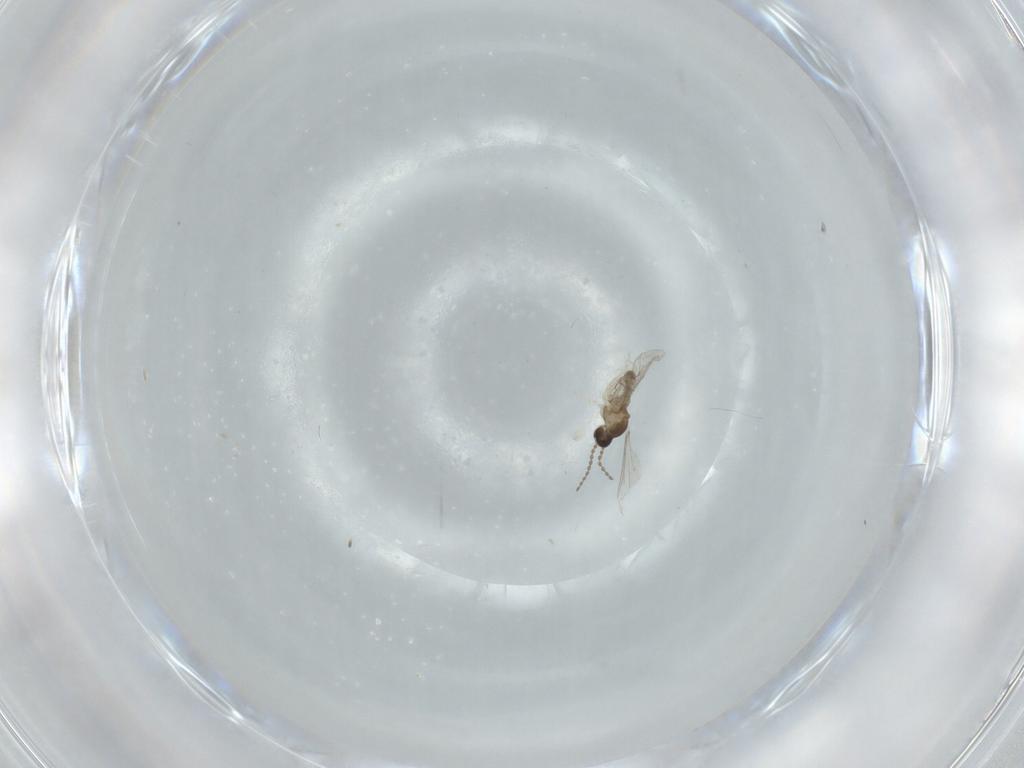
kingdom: Animalia
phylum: Arthropoda
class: Insecta
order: Diptera
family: Cecidomyiidae
